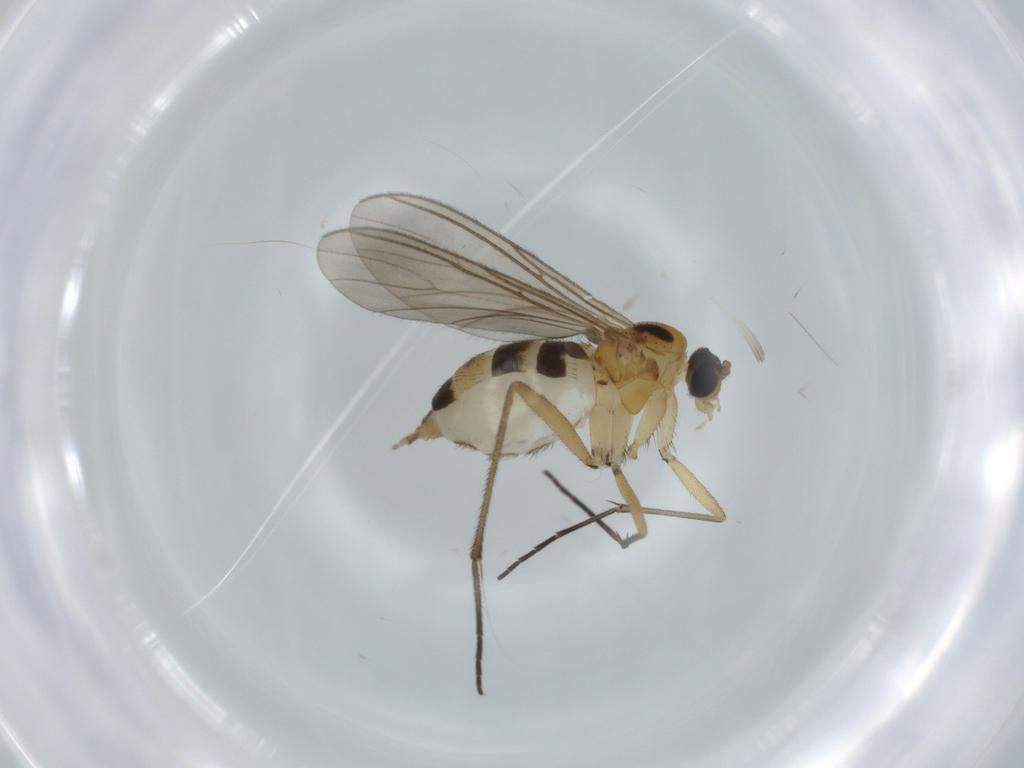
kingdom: Animalia
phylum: Arthropoda
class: Insecta
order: Diptera
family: Sciaridae
